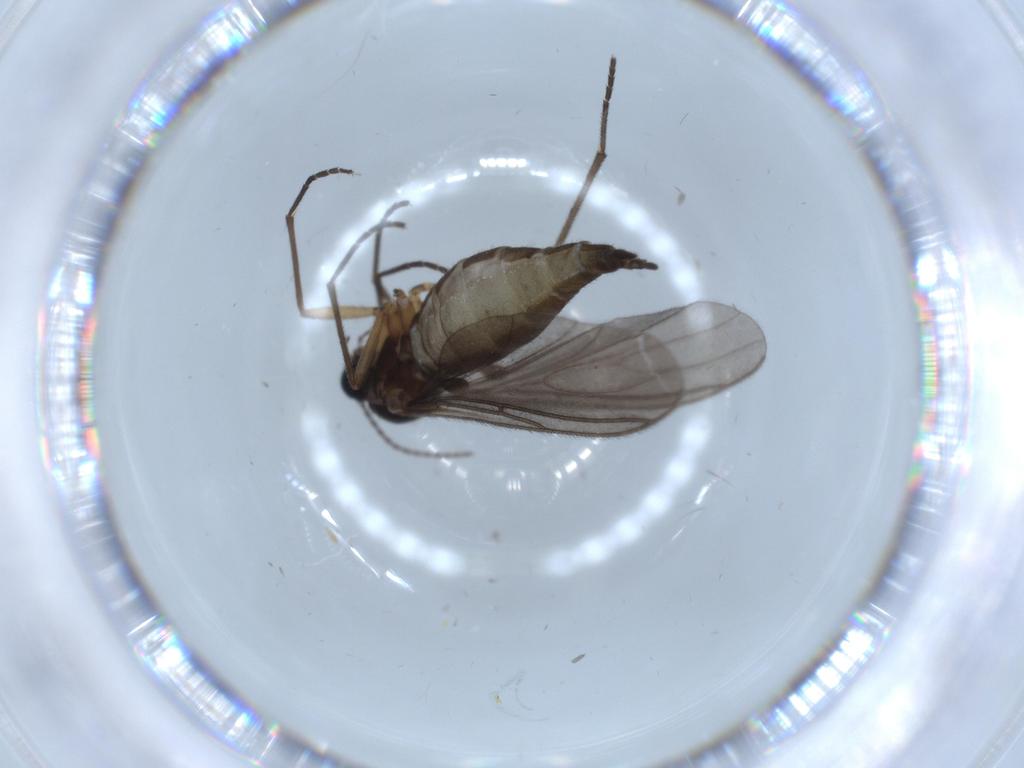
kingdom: Animalia
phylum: Arthropoda
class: Insecta
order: Diptera
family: Sciaridae
